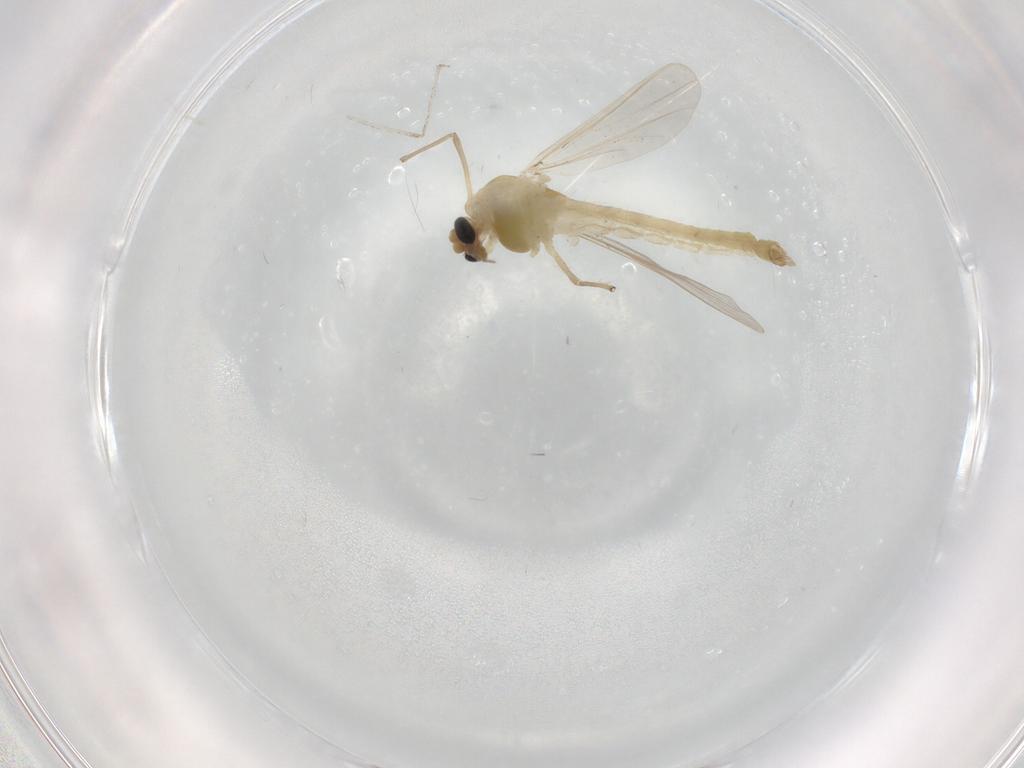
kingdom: Animalia
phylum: Arthropoda
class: Insecta
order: Diptera
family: Chironomidae
